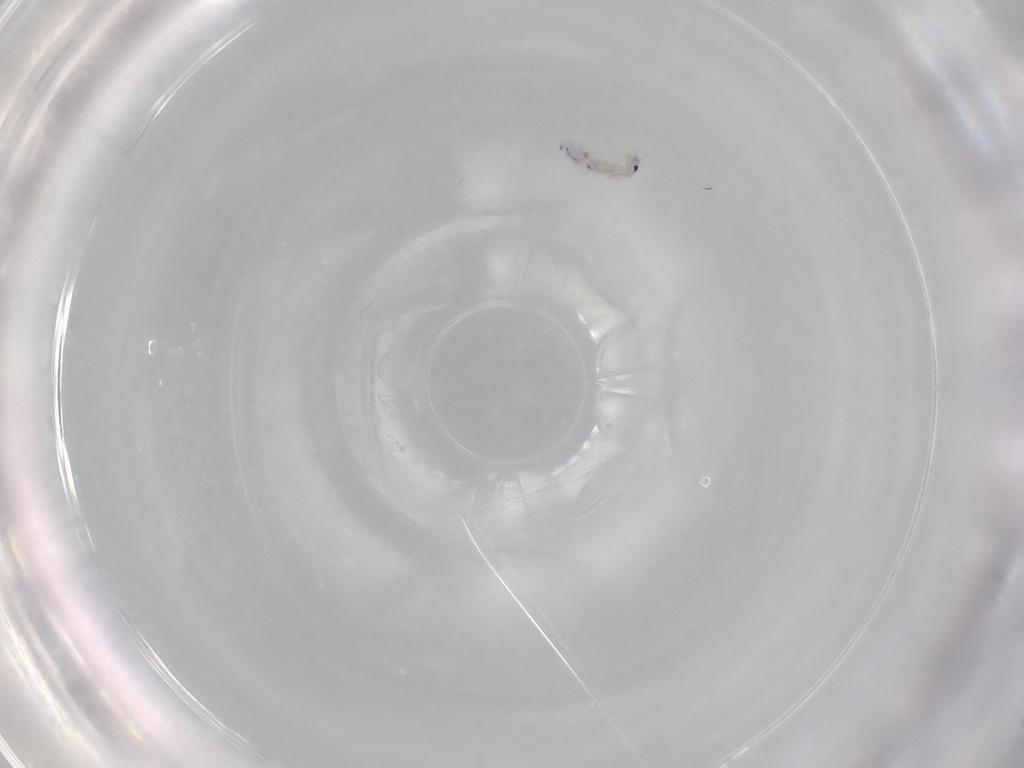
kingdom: Animalia
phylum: Arthropoda
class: Collembola
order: Entomobryomorpha
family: Entomobryidae
